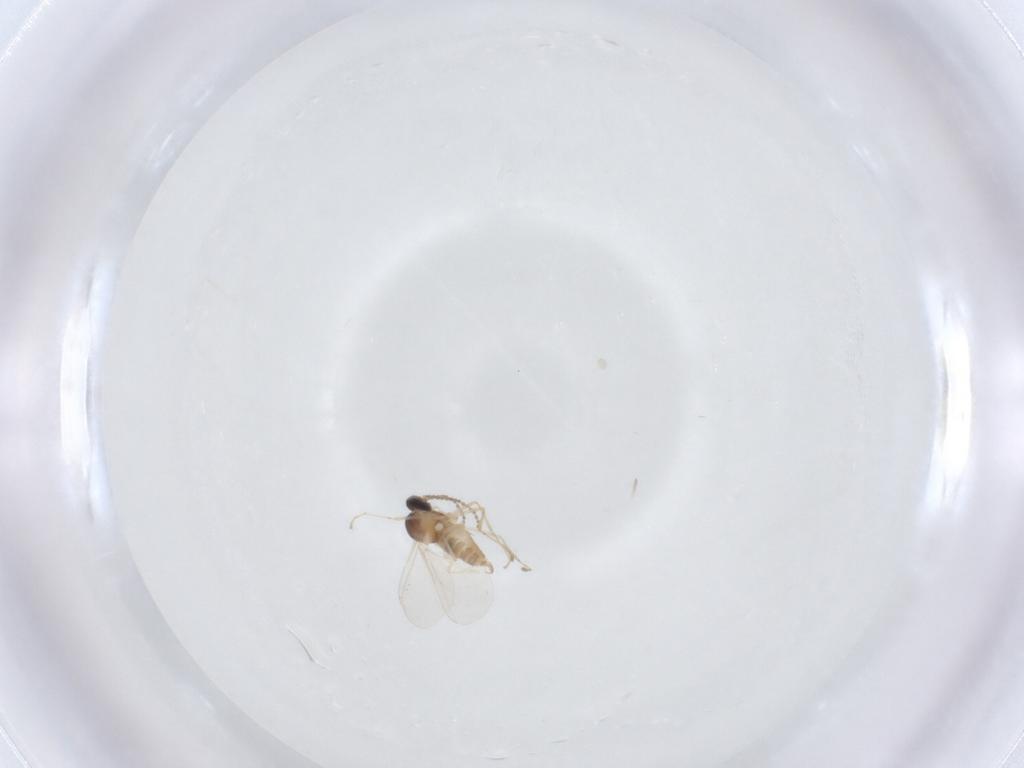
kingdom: Animalia
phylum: Arthropoda
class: Insecta
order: Diptera
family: Cecidomyiidae
